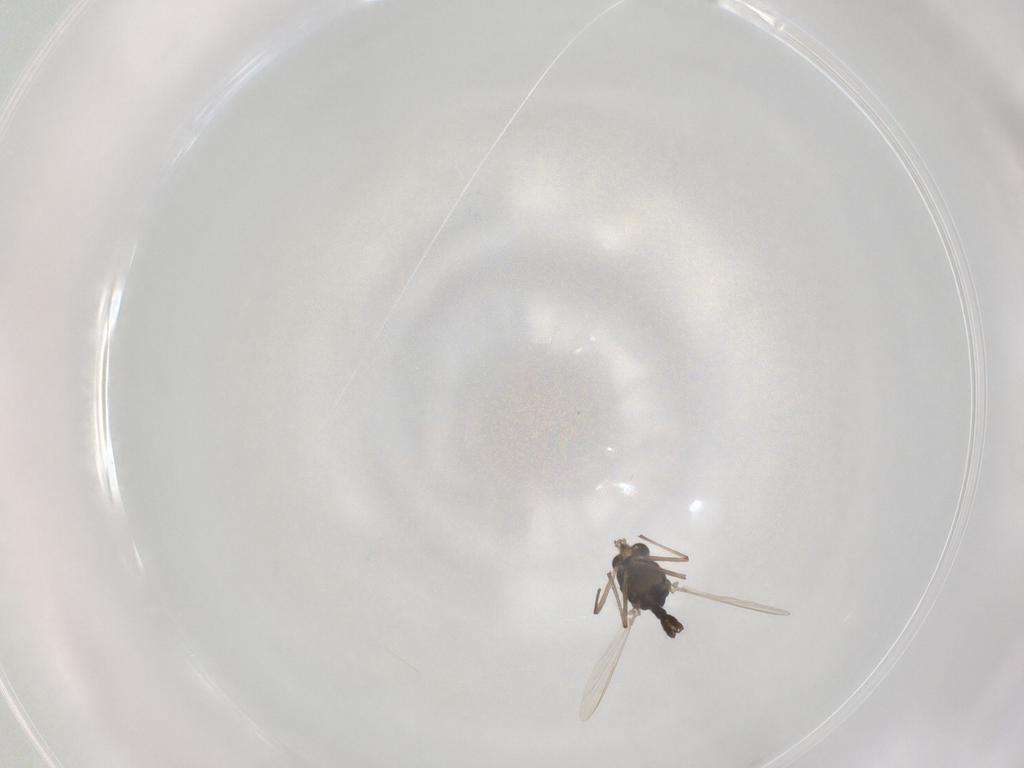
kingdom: Animalia
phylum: Arthropoda
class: Insecta
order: Diptera
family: Chironomidae
